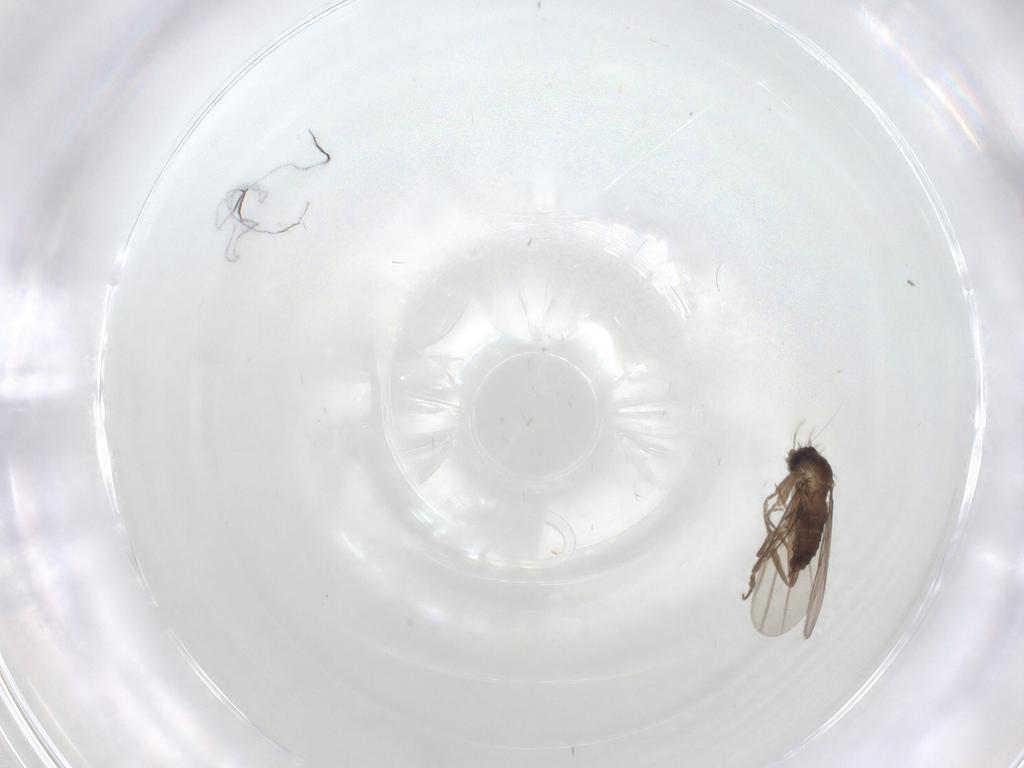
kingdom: Animalia
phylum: Arthropoda
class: Insecta
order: Diptera
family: Phoridae
